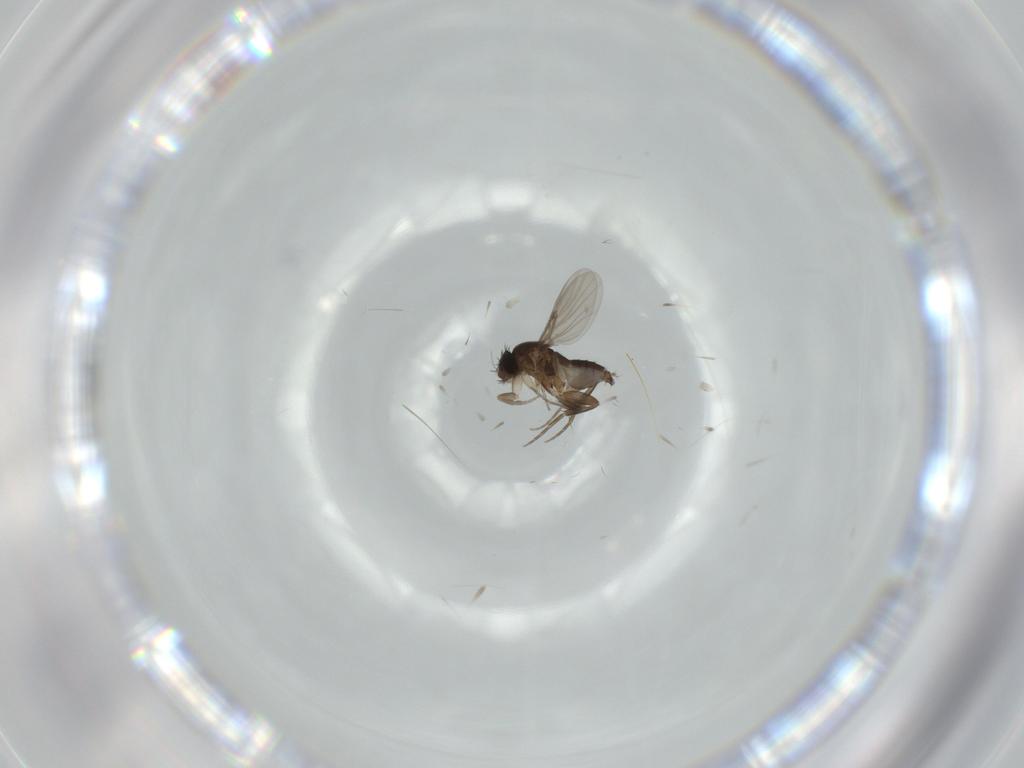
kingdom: Animalia
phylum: Arthropoda
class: Insecta
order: Diptera
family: Phoridae
